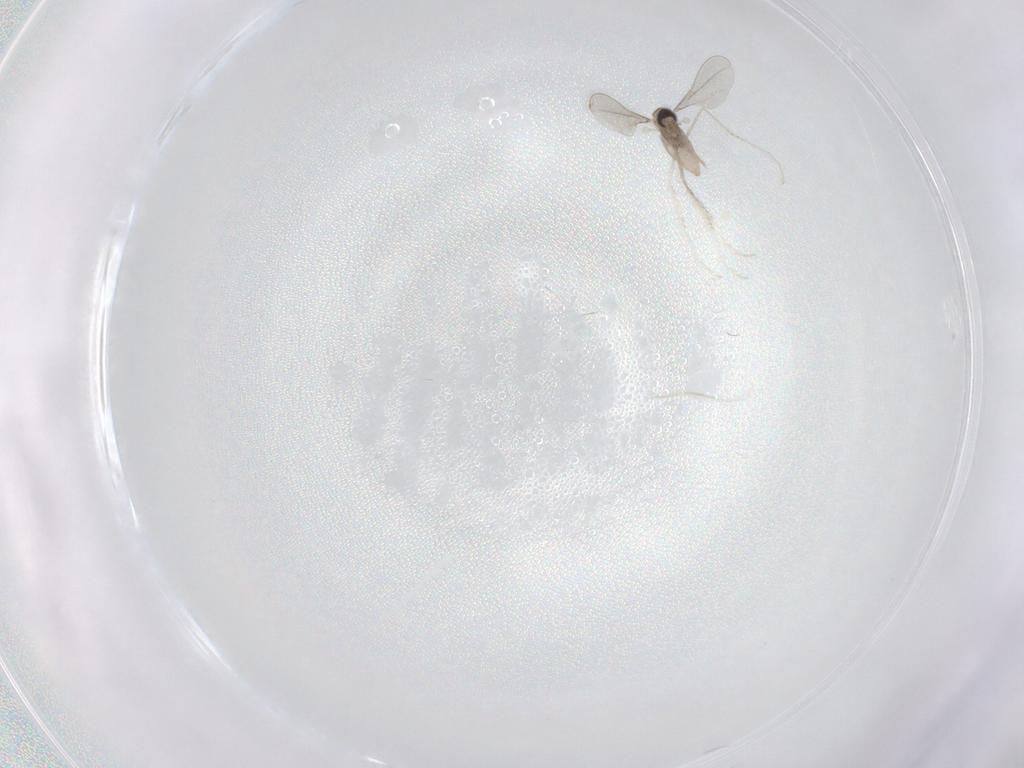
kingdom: Animalia
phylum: Arthropoda
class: Insecta
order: Diptera
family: Cecidomyiidae
